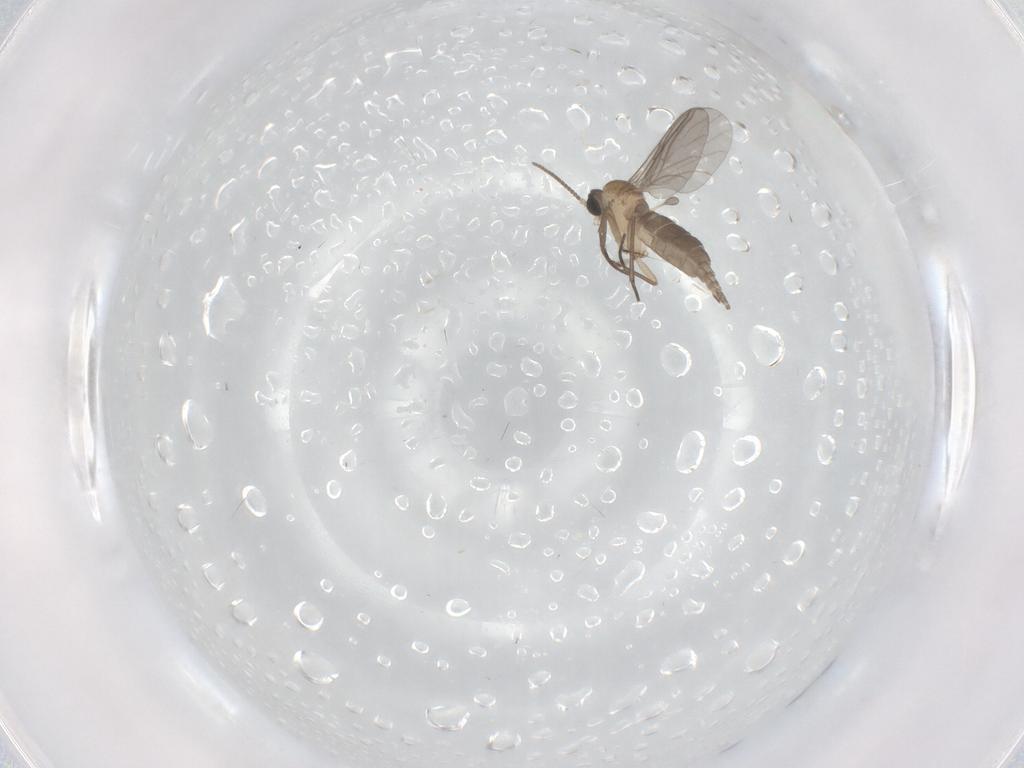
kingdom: Animalia
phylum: Arthropoda
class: Insecta
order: Diptera
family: Sciaridae
